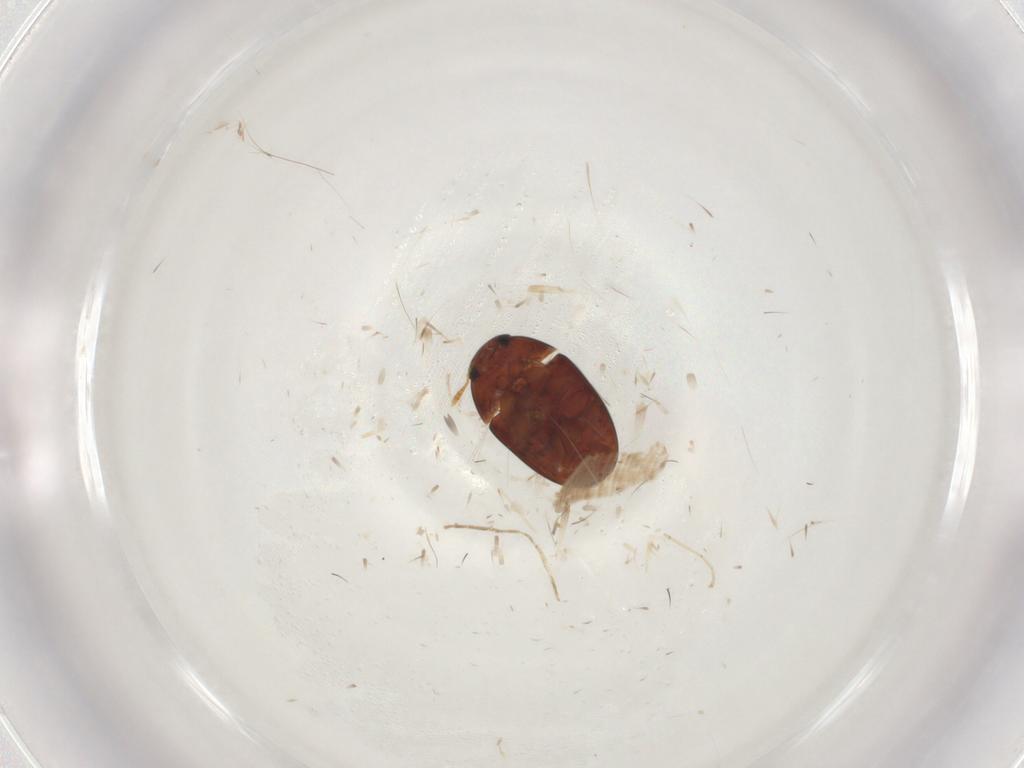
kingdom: Animalia
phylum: Arthropoda
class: Insecta
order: Coleoptera
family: Phalacridae
